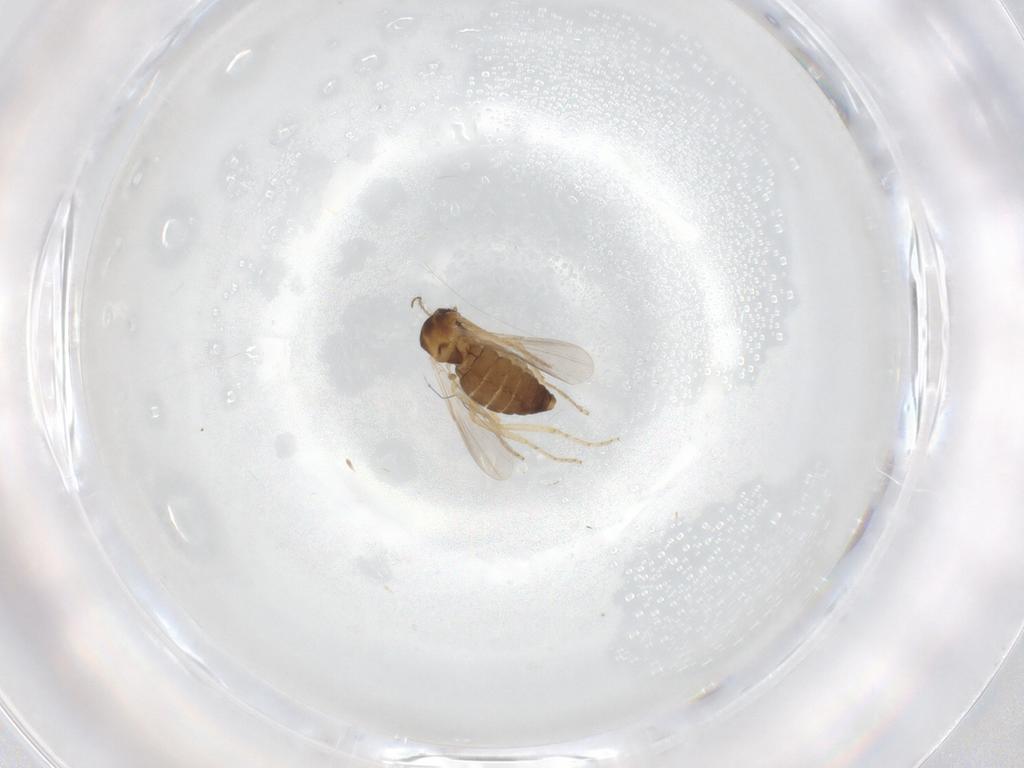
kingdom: Animalia
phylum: Arthropoda
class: Insecta
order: Diptera
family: Ceratopogonidae
